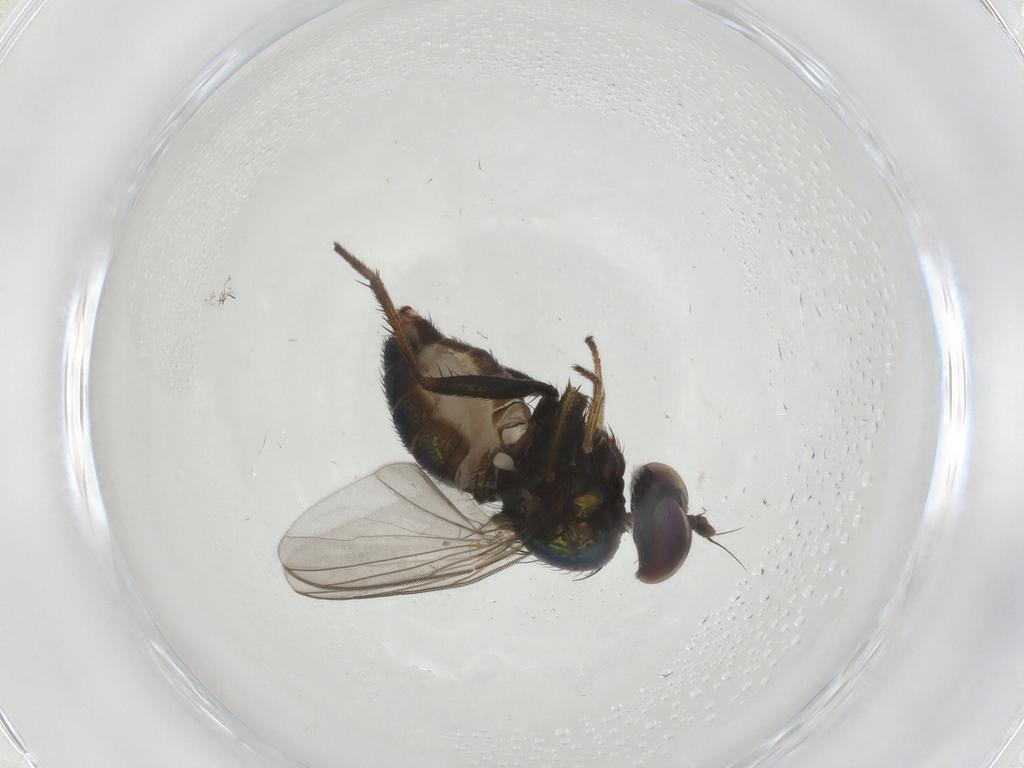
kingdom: Animalia
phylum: Arthropoda
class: Insecta
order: Diptera
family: Dolichopodidae
